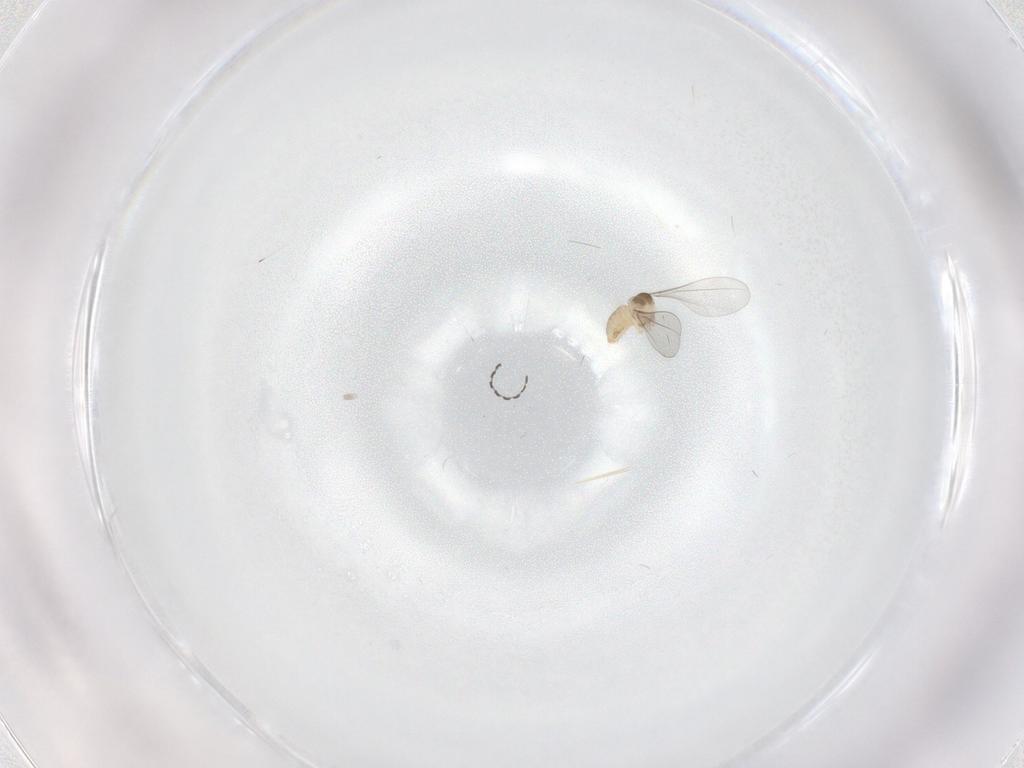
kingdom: Animalia
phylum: Arthropoda
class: Insecta
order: Diptera
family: Cecidomyiidae
